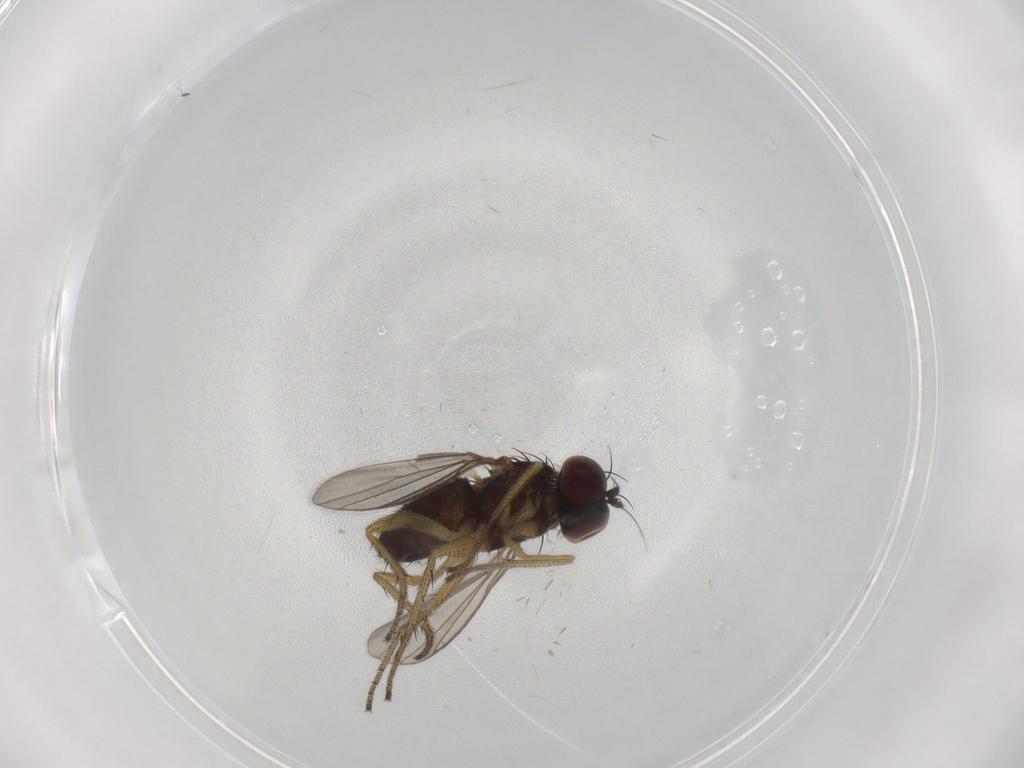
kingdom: Animalia
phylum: Arthropoda
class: Insecta
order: Diptera
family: Dolichopodidae
